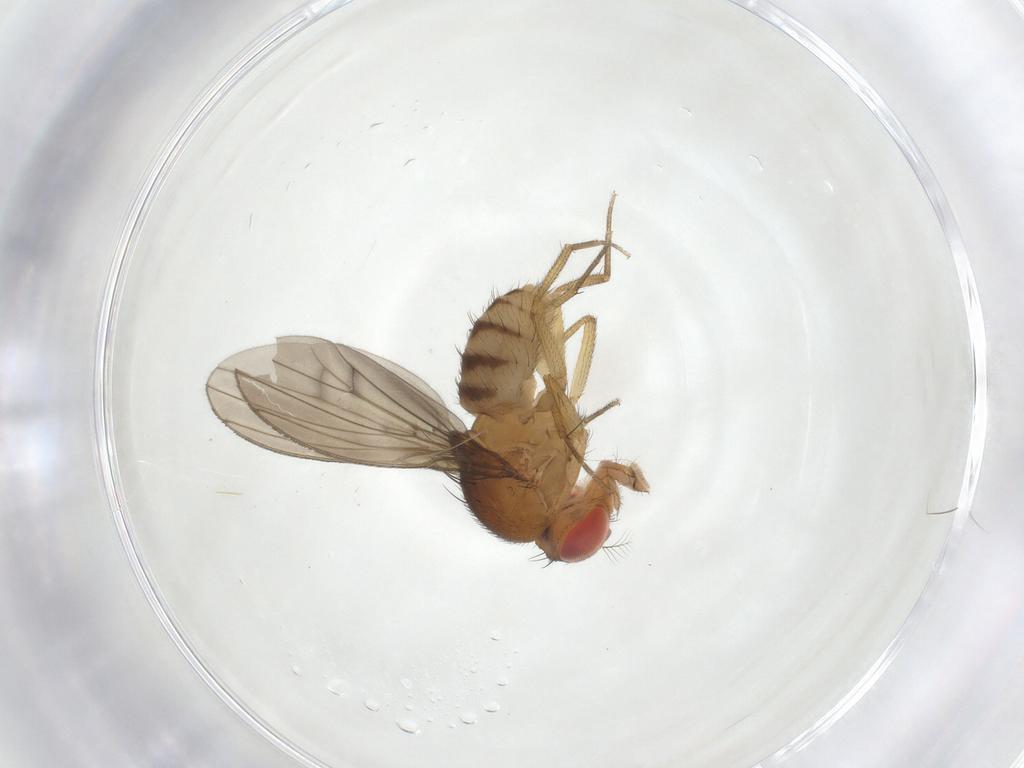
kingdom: Animalia
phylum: Arthropoda
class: Insecta
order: Diptera
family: Drosophilidae
